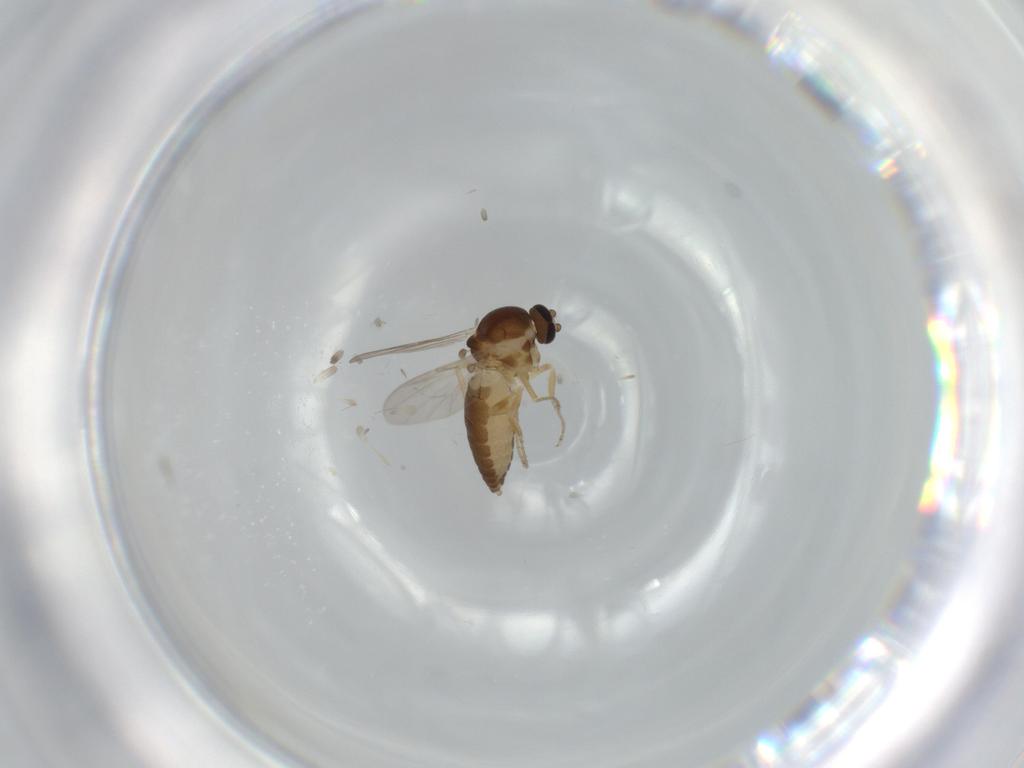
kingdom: Animalia
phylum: Arthropoda
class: Insecta
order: Diptera
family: Ceratopogonidae
